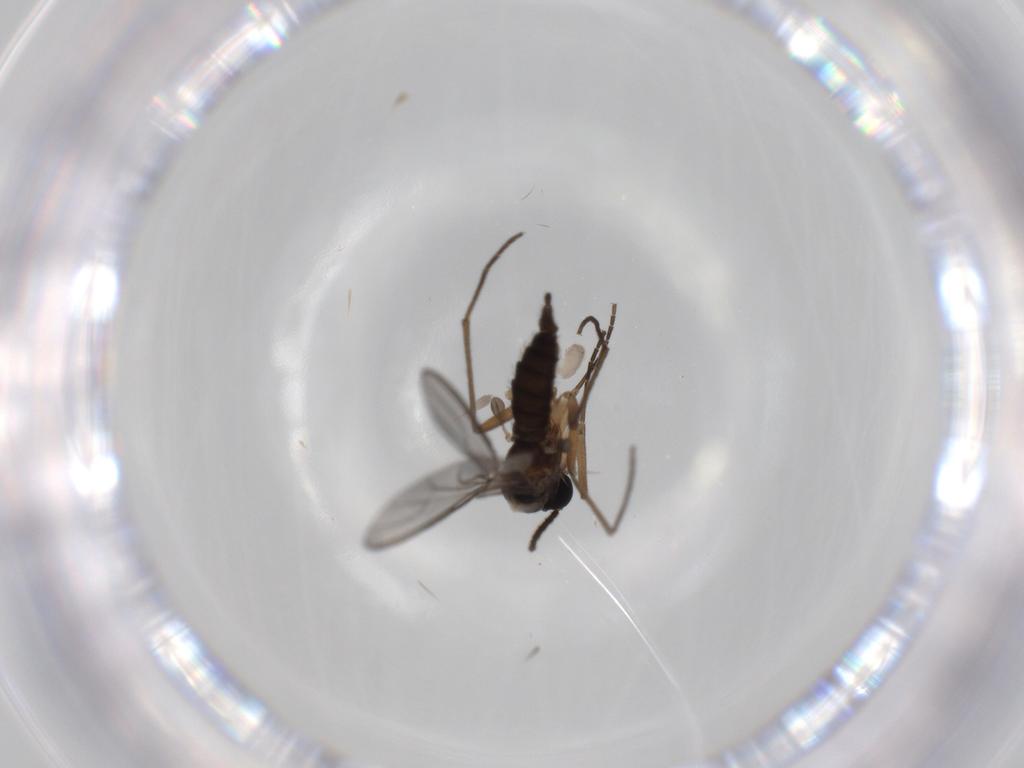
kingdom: Animalia
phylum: Arthropoda
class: Insecta
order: Diptera
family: Sciaridae
